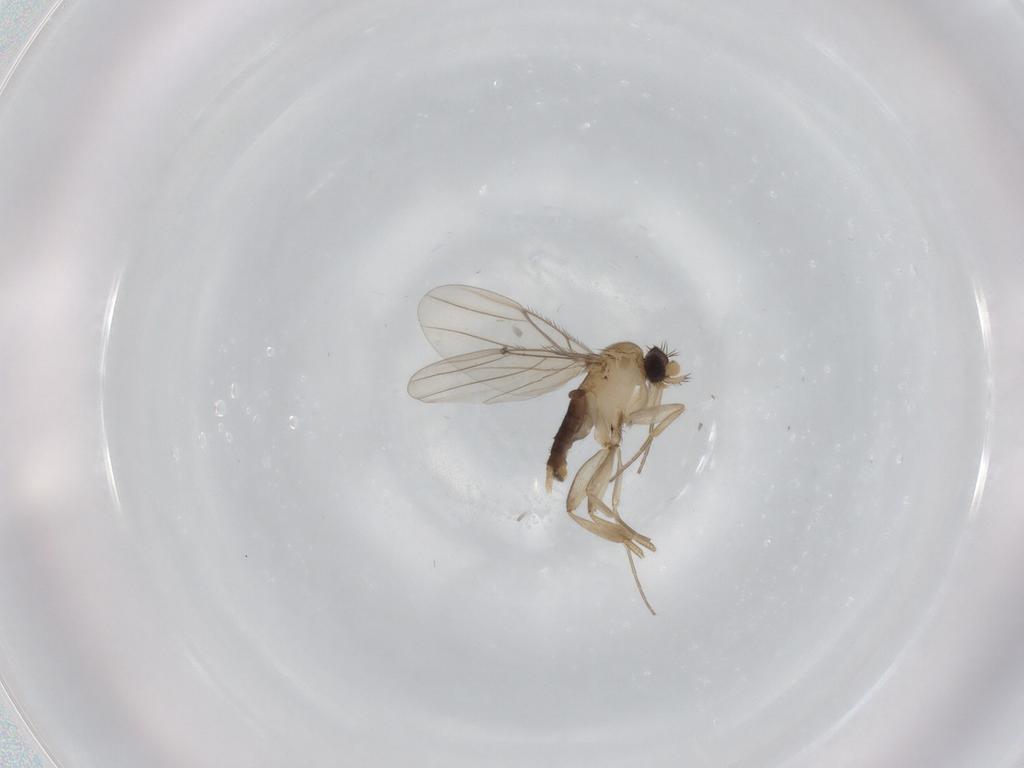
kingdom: Animalia
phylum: Arthropoda
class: Insecta
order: Diptera
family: Phoridae
